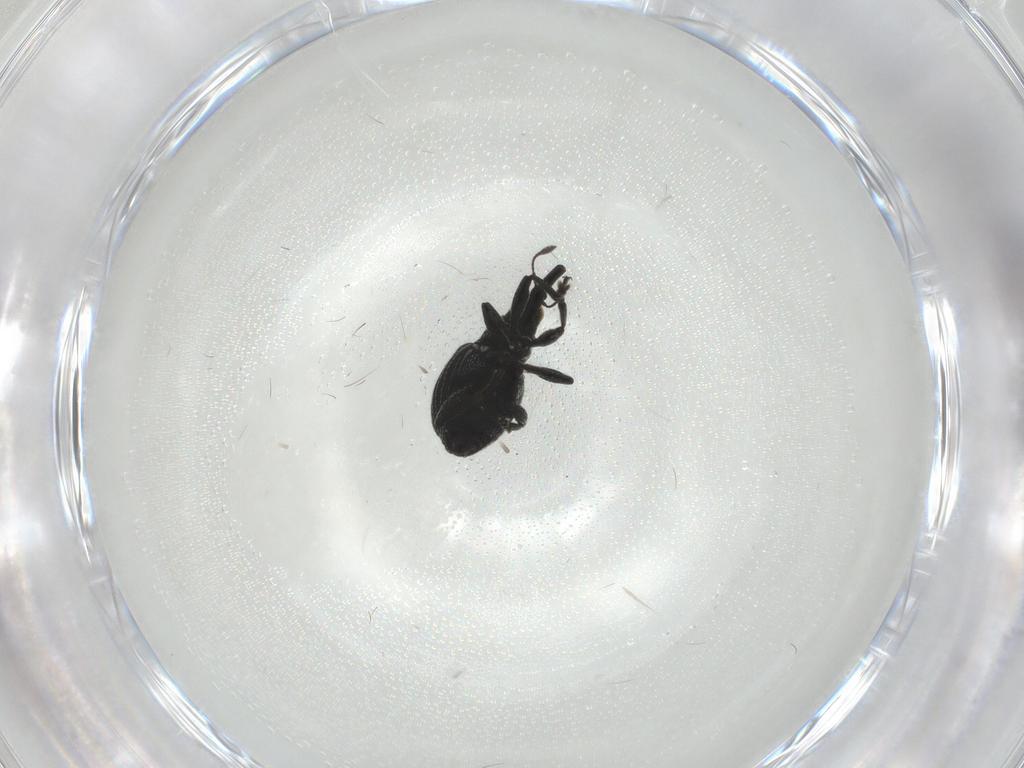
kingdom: Animalia
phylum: Arthropoda
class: Insecta
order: Coleoptera
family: Brentidae
